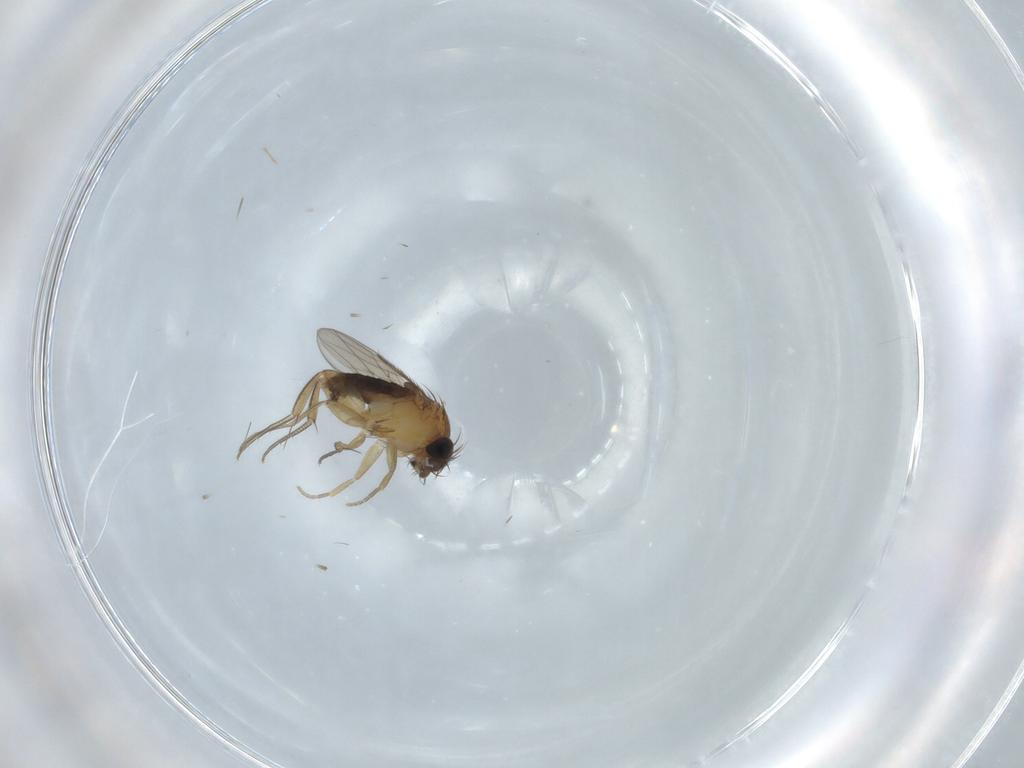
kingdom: Animalia
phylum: Arthropoda
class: Insecta
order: Diptera
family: Phoridae
